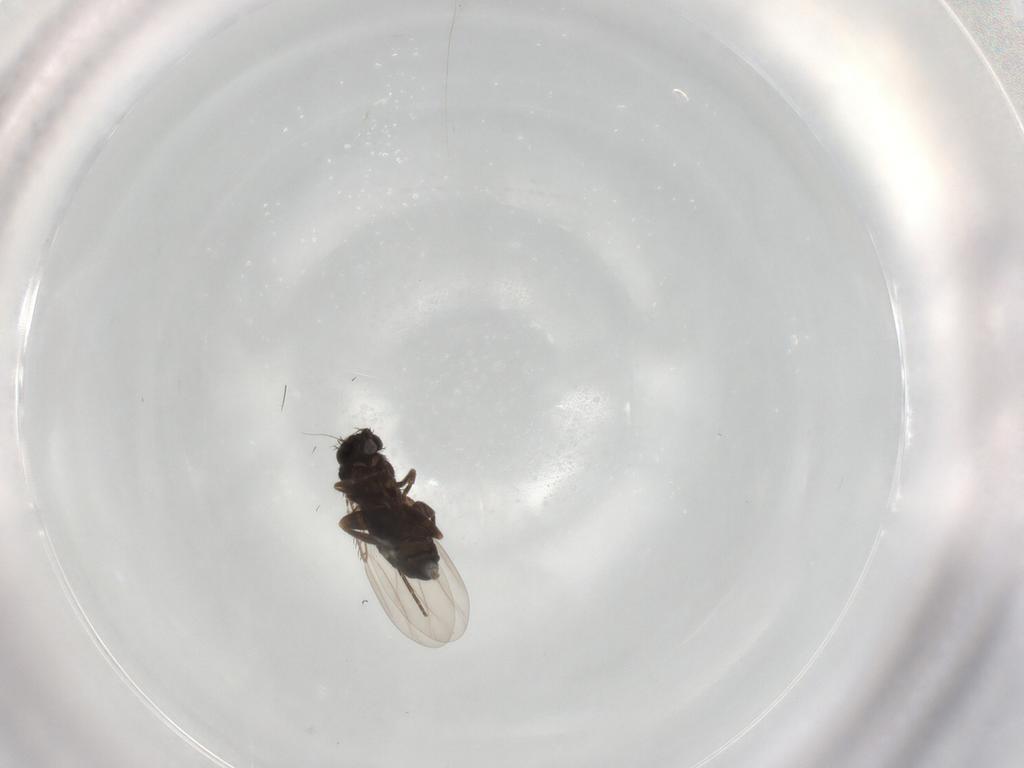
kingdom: Animalia
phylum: Arthropoda
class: Insecta
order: Diptera
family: Phoridae
